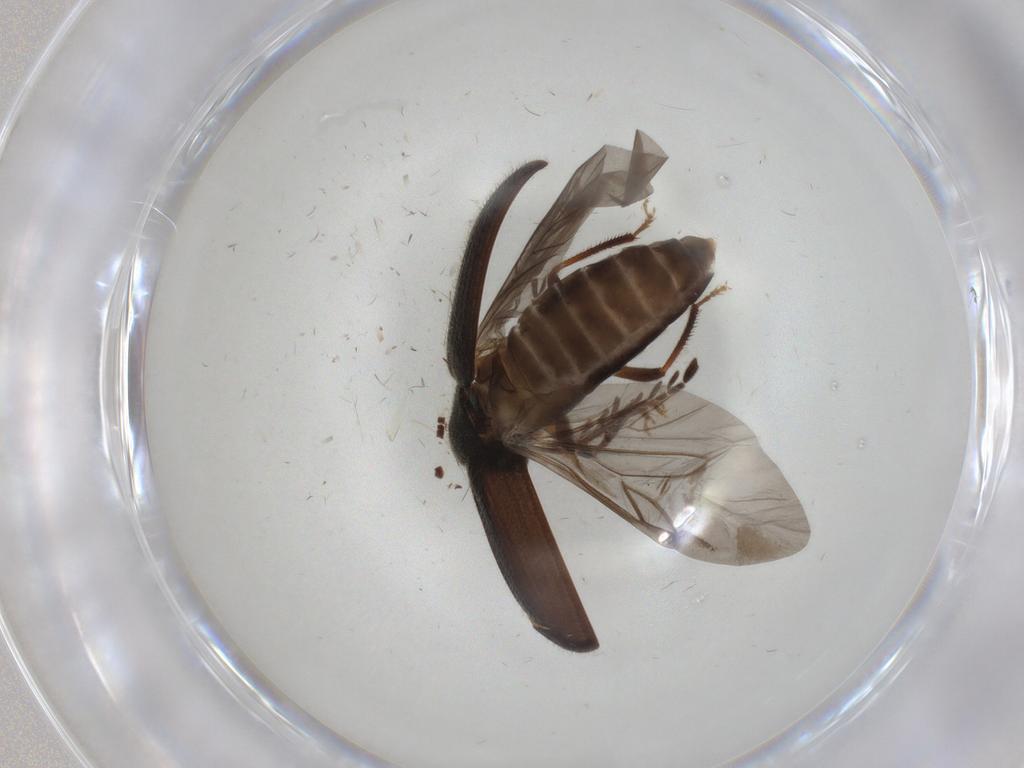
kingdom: Animalia
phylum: Arthropoda
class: Insecta
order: Coleoptera
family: Ptilodactylidae
